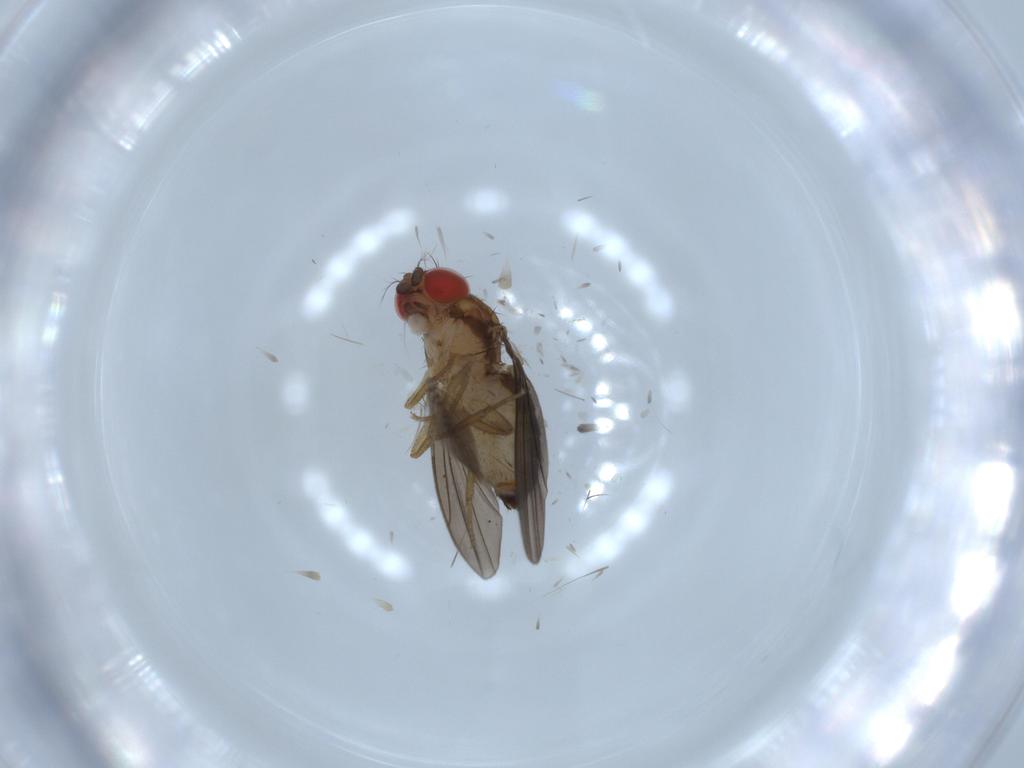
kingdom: Animalia
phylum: Arthropoda
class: Insecta
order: Diptera
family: Drosophilidae
